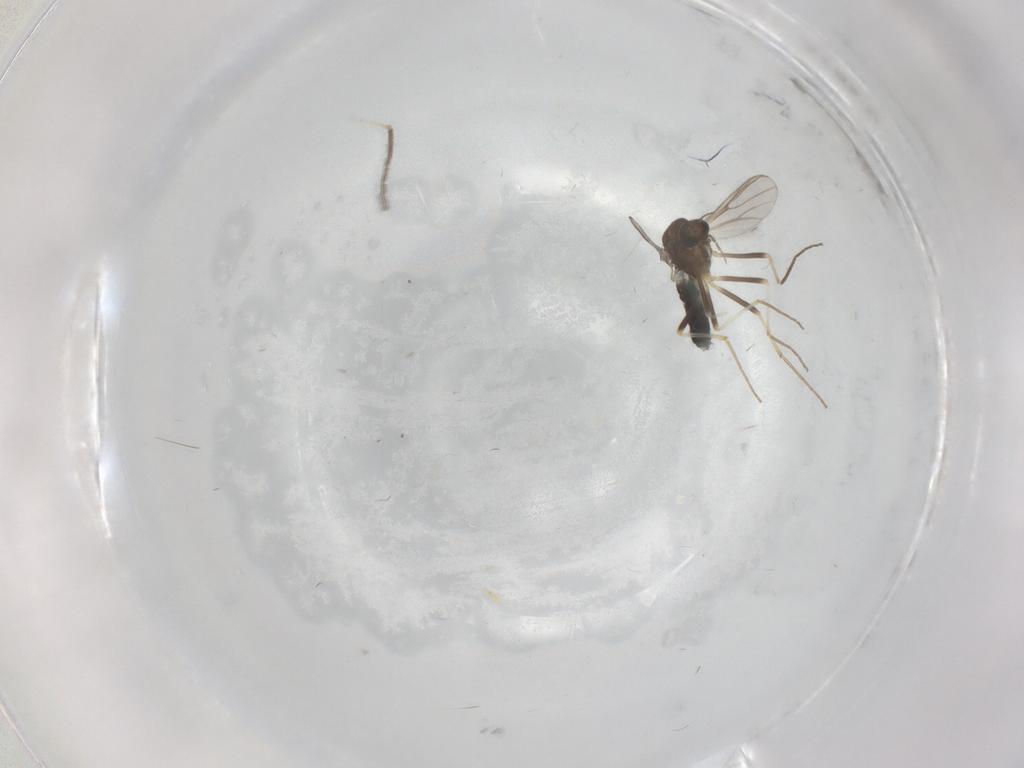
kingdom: Animalia
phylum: Arthropoda
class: Insecta
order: Diptera
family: Chironomidae
